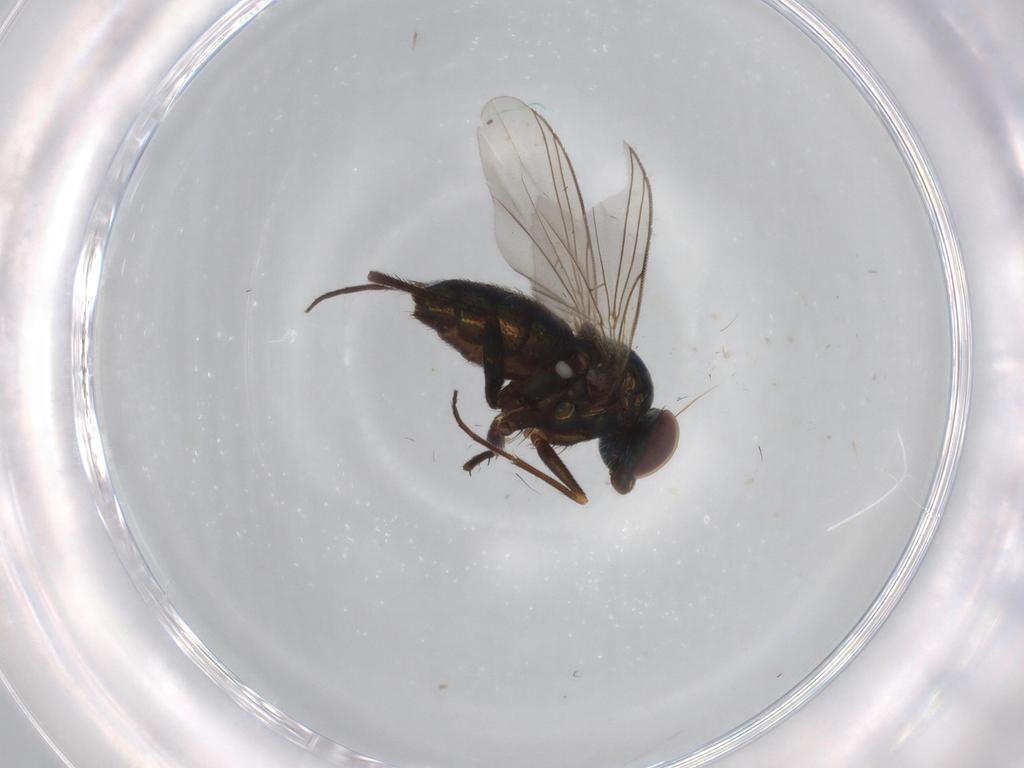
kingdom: Animalia
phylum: Arthropoda
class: Insecta
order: Diptera
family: Dolichopodidae
